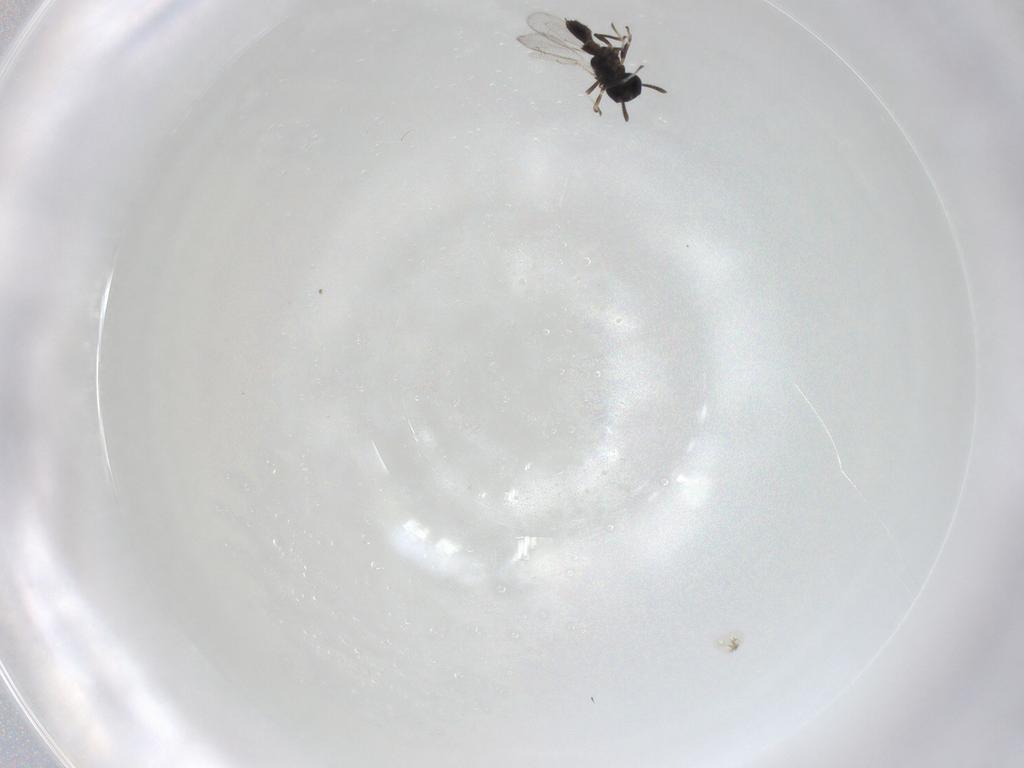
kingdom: Animalia
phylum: Arthropoda
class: Insecta
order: Hymenoptera
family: Eupelmidae
